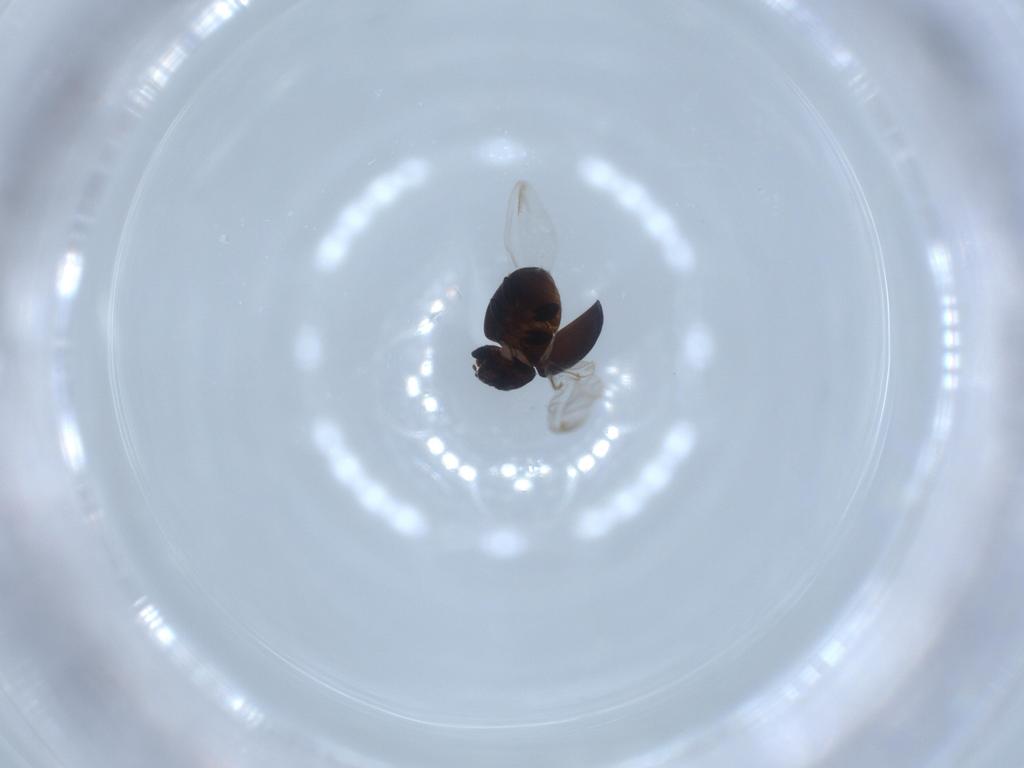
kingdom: Animalia
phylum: Arthropoda
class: Insecta
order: Coleoptera
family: Coccinellidae
